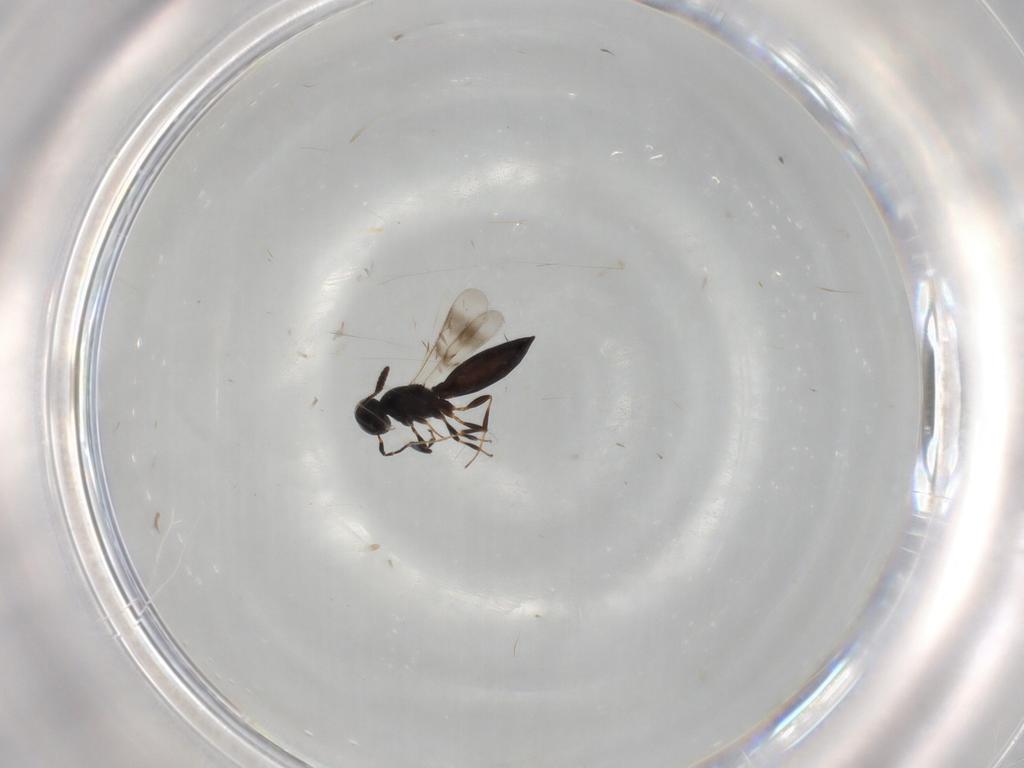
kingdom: Animalia
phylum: Arthropoda
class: Insecta
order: Hymenoptera
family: Scelionidae
